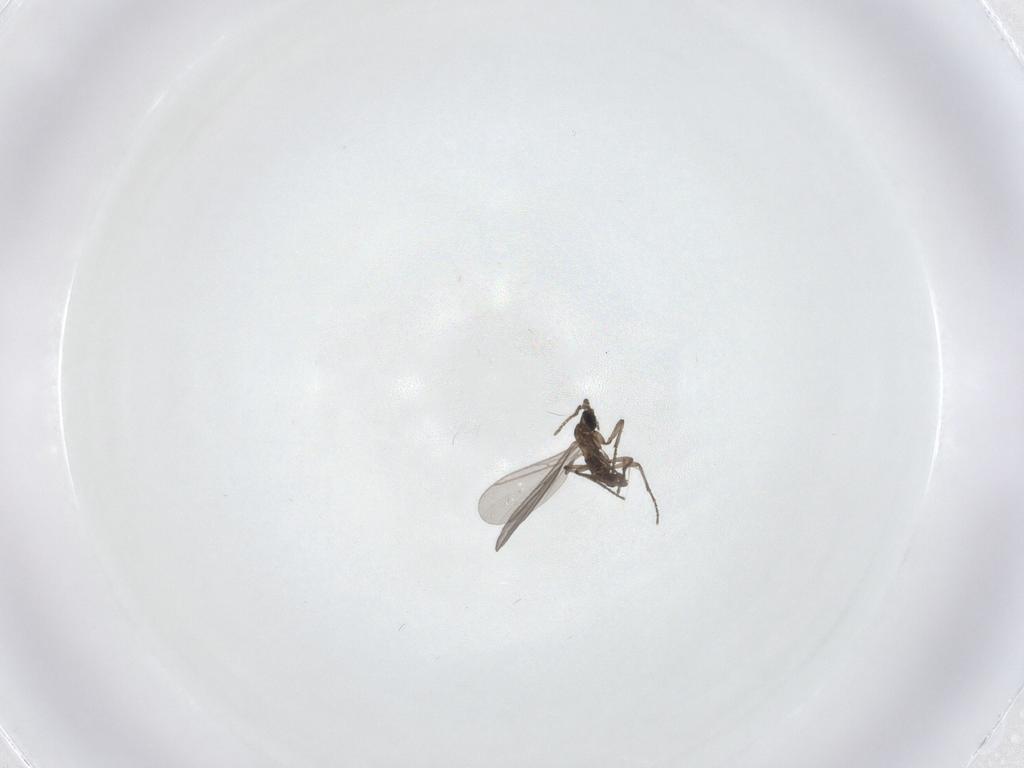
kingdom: Animalia
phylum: Arthropoda
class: Insecta
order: Diptera
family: Sciaridae
